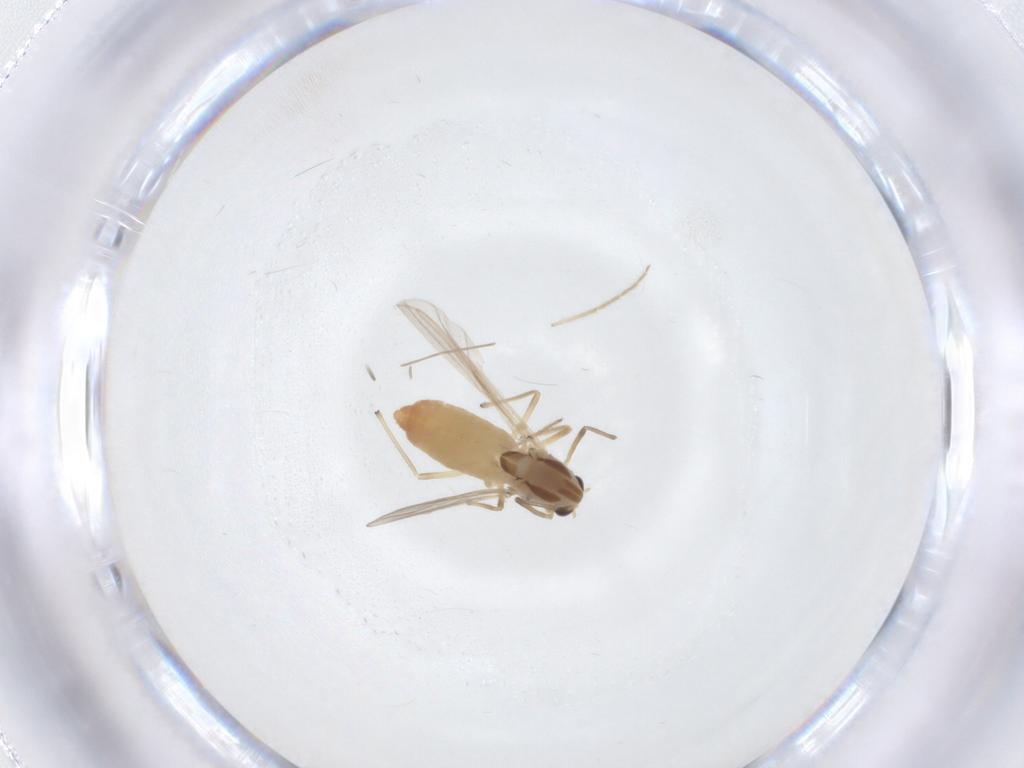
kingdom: Animalia
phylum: Arthropoda
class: Insecta
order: Diptera
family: Chironomidae
